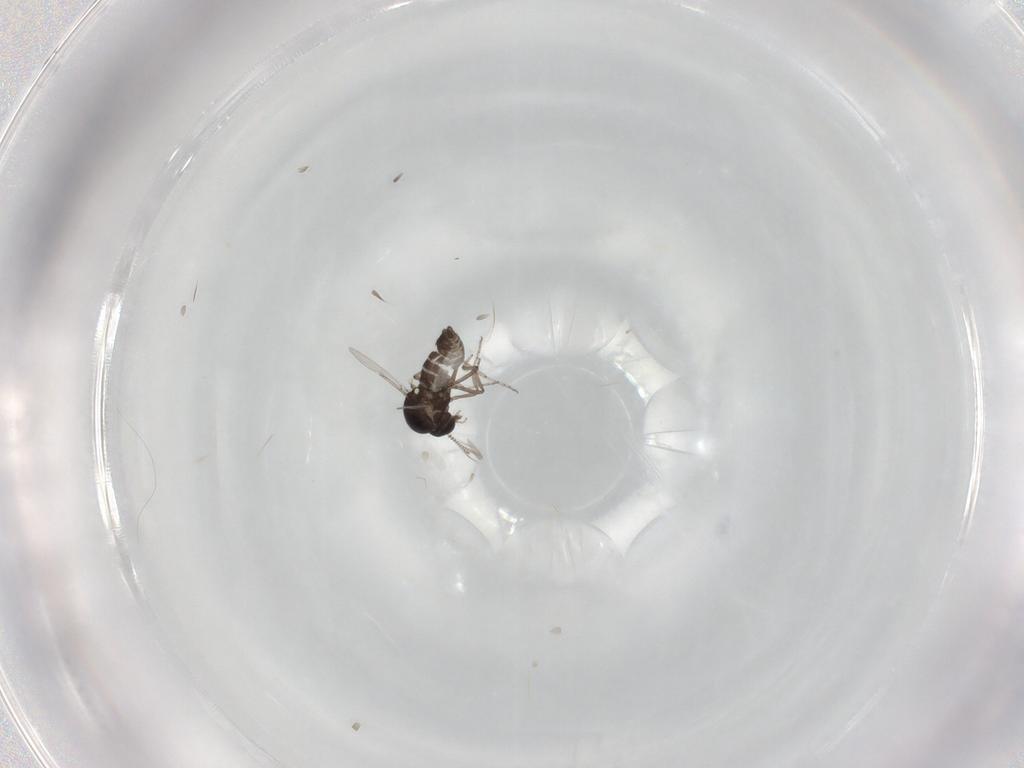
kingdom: Animalia
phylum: Arthropoda
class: Insecta
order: Diptera
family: Ceratopogonidae
